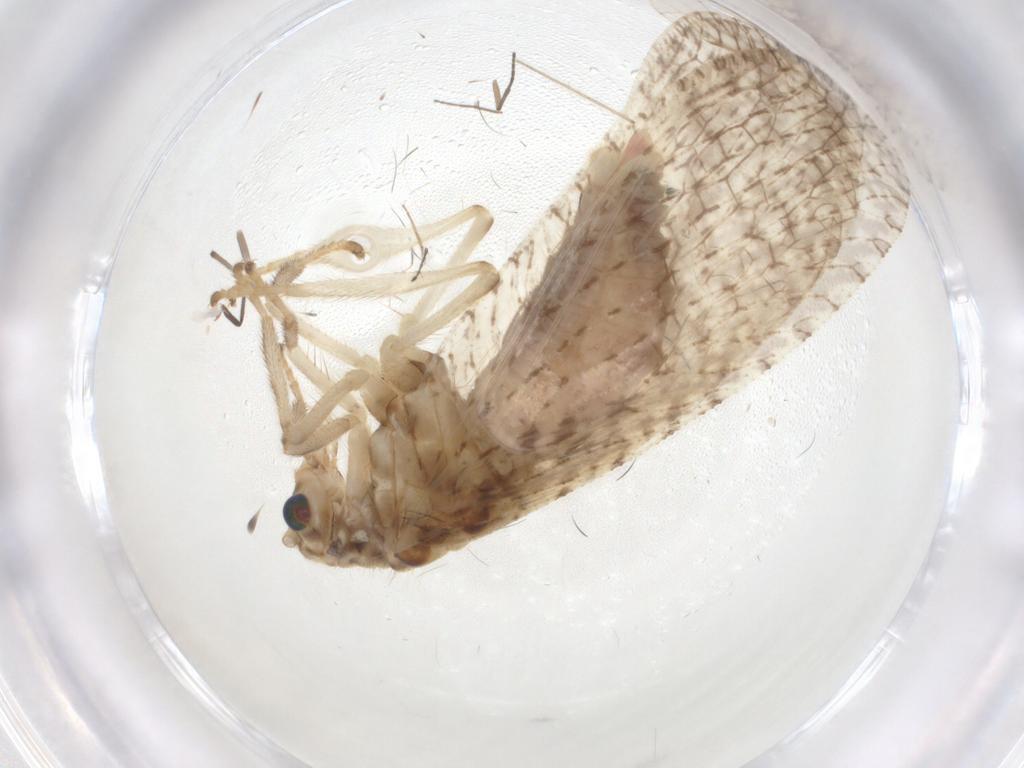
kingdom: Animalia
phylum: Arthropoda
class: Insecta
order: Neuroptera
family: Hemerobiidae
